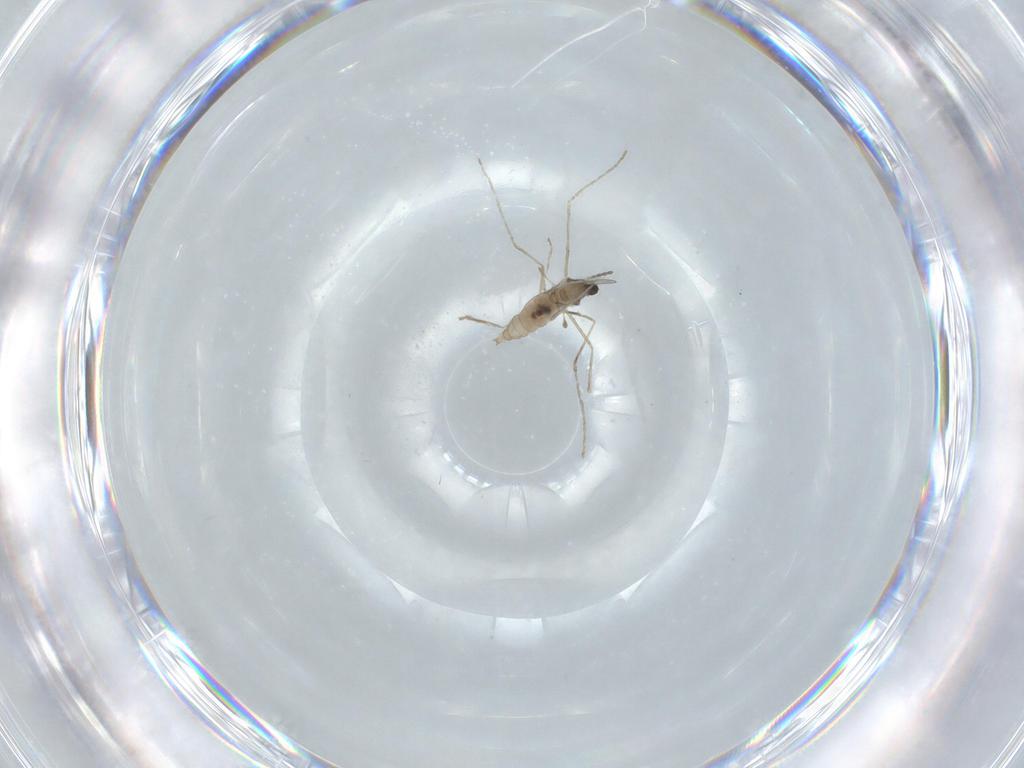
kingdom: Animalia
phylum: Arthropoda
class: Insecta
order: Diptera
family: Cecidomyiidae
